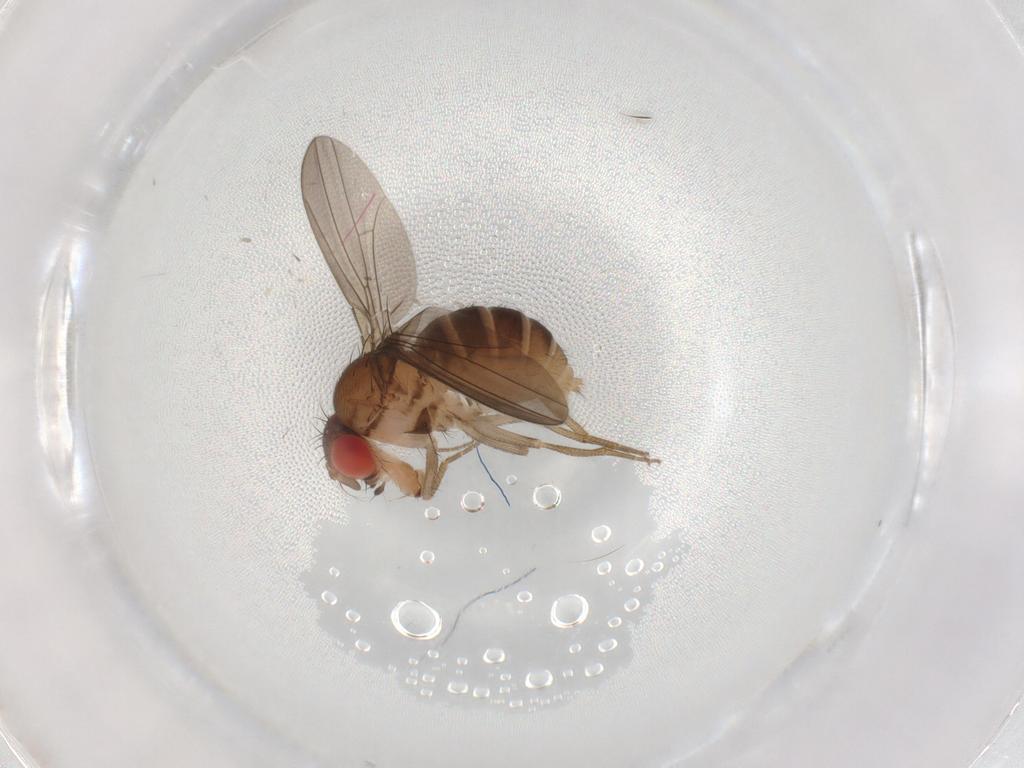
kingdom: Animalia
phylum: Arthropoda
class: Insecta
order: Diptera
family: Drosophilidae
